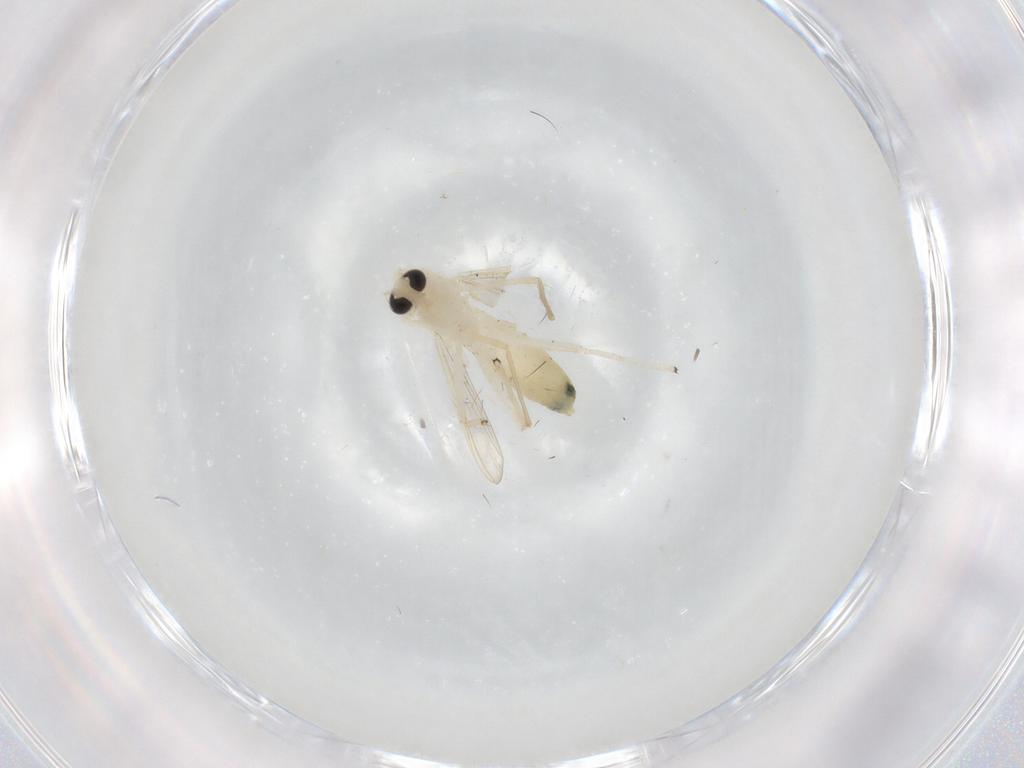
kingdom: Animalia
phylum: Arthropoda
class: Insecta
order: Diptera
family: Chironomidae
